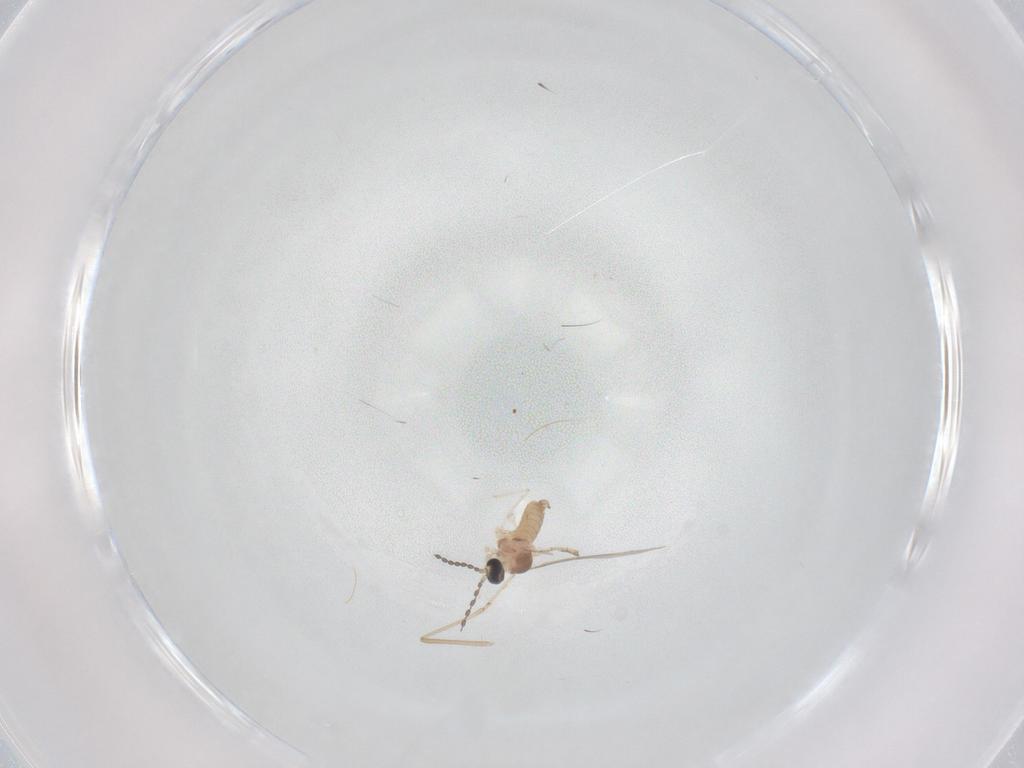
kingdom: Animalia
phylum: Arthropoda
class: Insecta
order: Diptera
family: Cecidomyiidae
